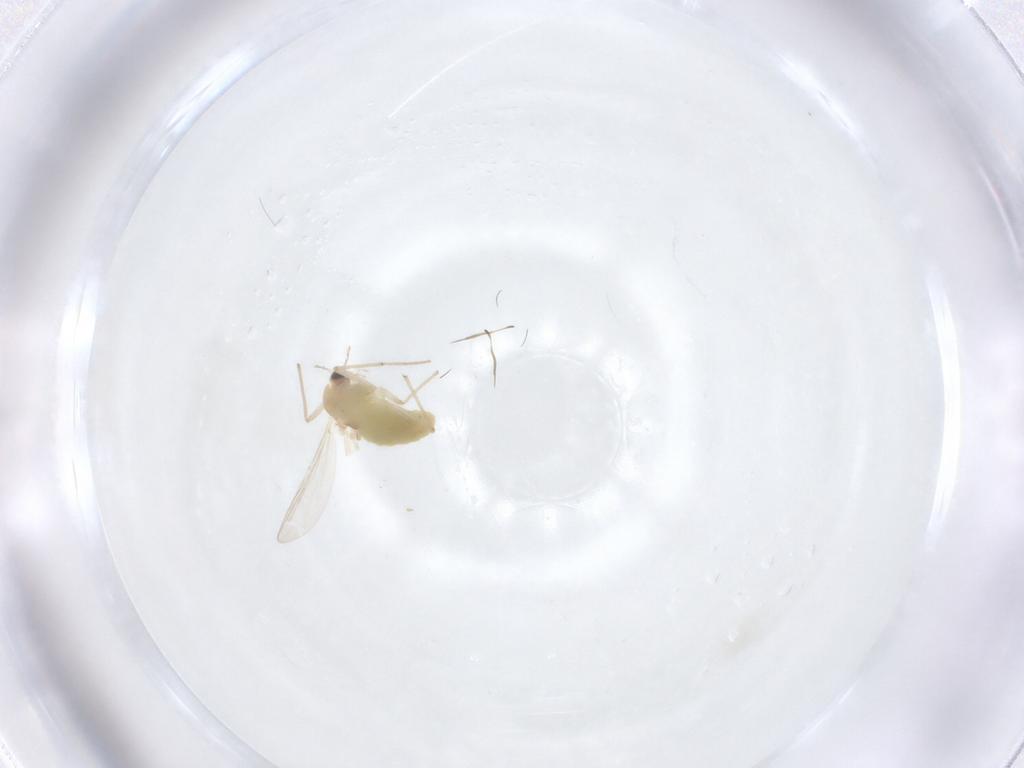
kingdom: Animalia
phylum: Arthropoda
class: Insecta
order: Diptera
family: Chironomidae
